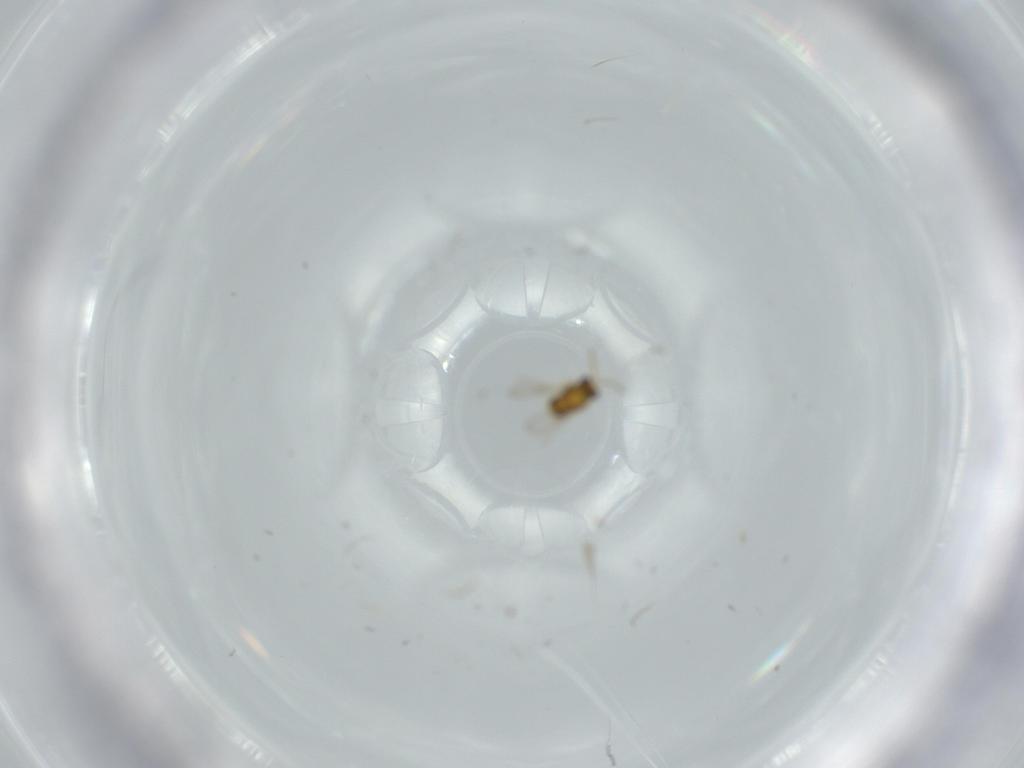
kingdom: Animalia
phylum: Arthropoda
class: Insecta
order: Hymenoptera
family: Aphelinidae
